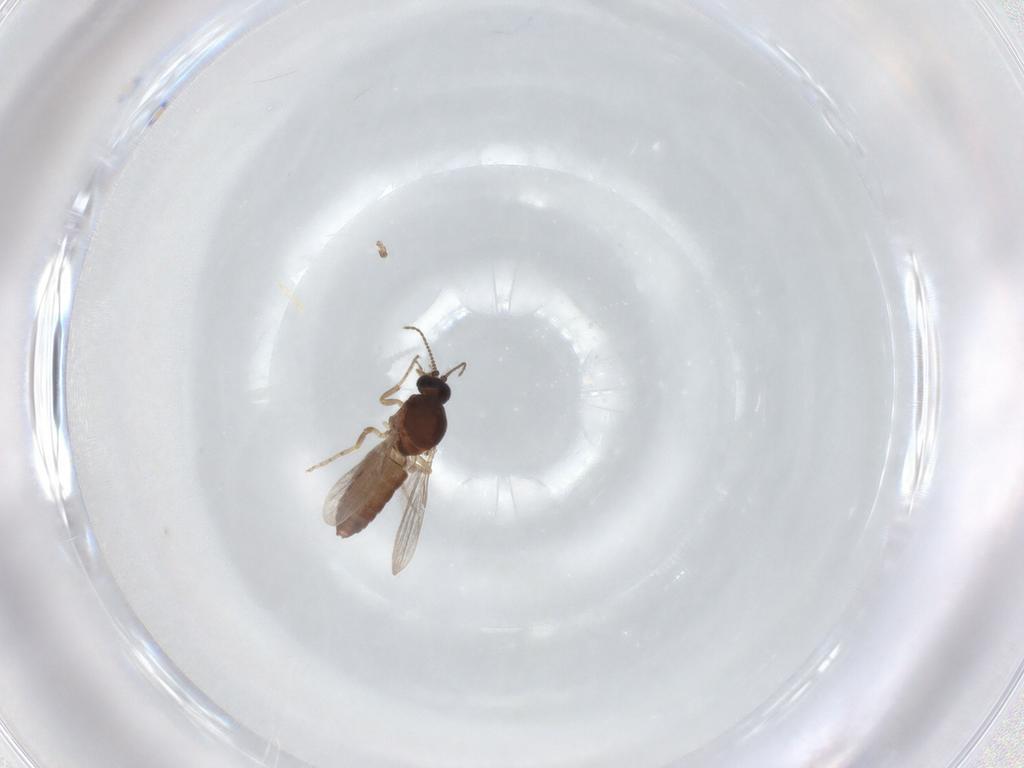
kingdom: Animalia
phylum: Arthropoda
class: Insecta
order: Diptera
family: Ceratopogonidae
